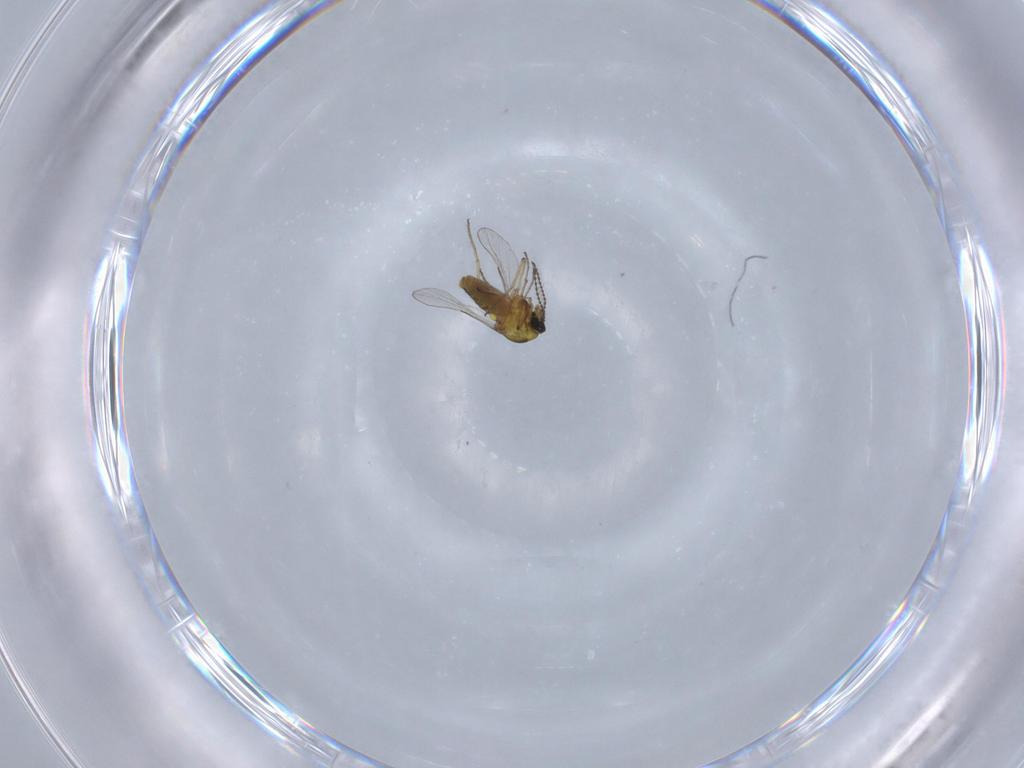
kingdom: Animalia
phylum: Arthropoda
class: Insecta
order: Diptera
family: Ceratopogonidae
